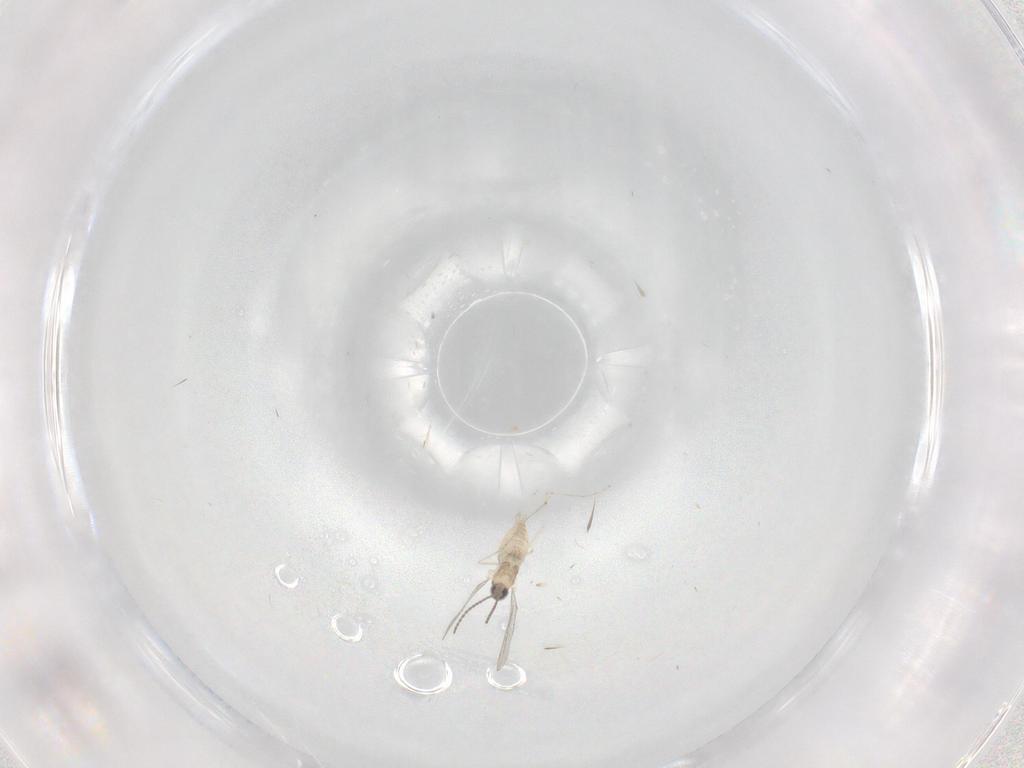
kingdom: Animalia
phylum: Arthropoda
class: Insecta
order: Diptera
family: Cecidomyiidae
